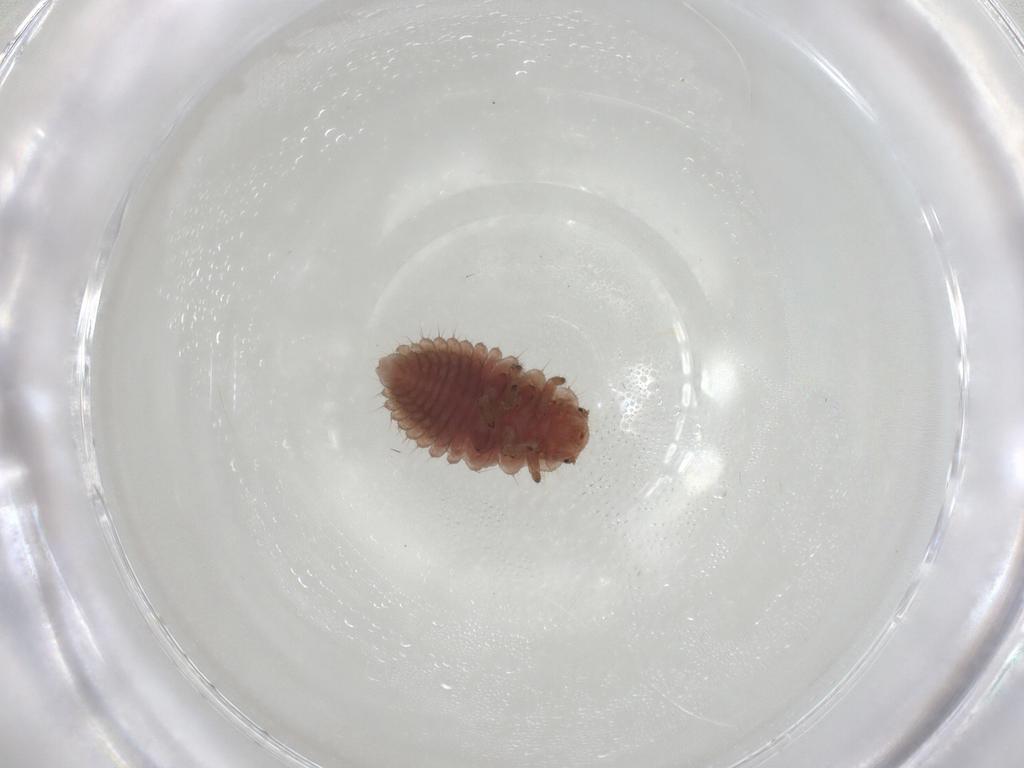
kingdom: Animalia
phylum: Arthropoda
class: Insecta
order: Coleoptera
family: Coccinellidae
